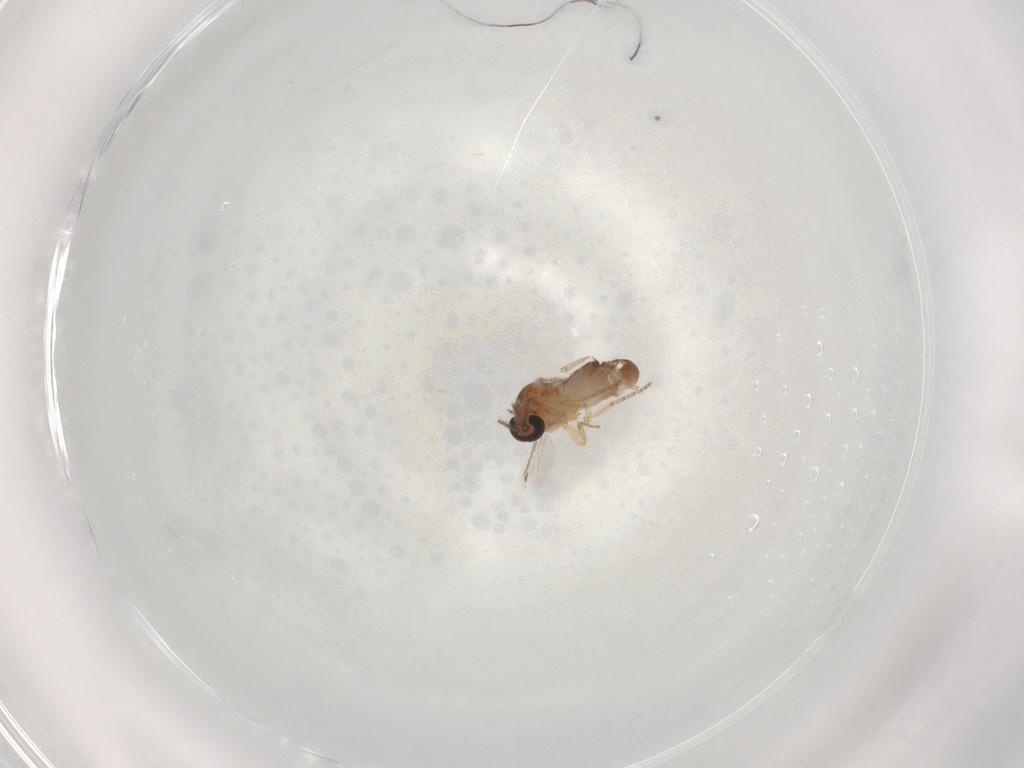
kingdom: Animalia
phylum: Arthropoda
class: Insecta
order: Diptera
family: Ceratopogonidae
